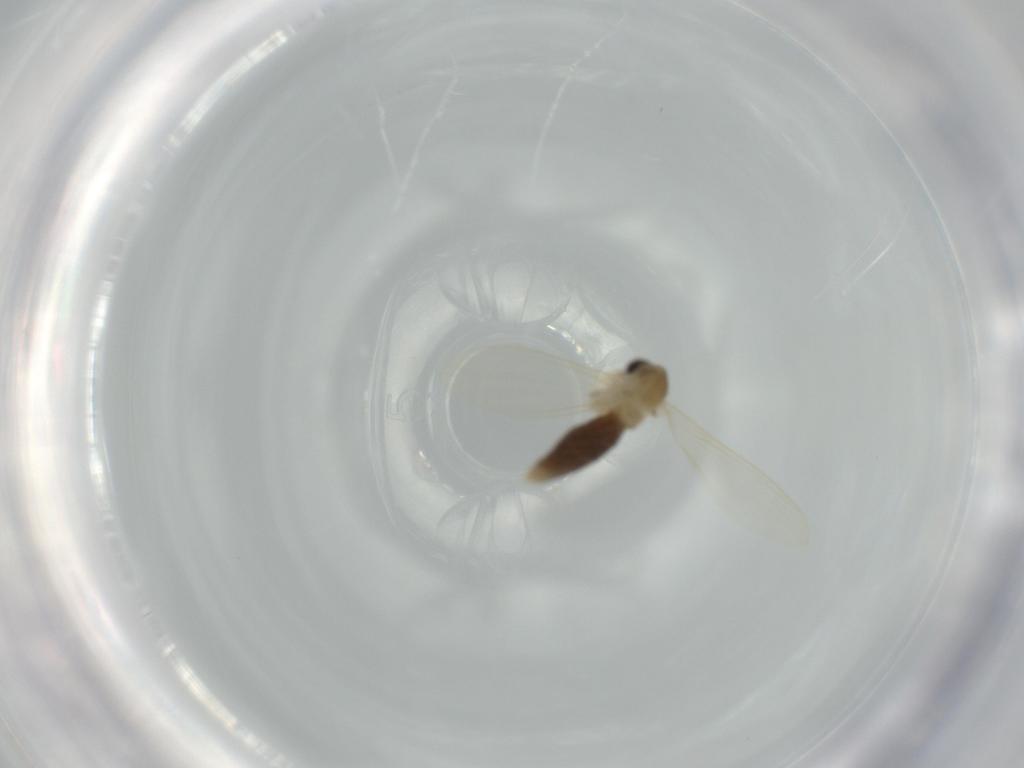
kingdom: Animalia
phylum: Arthropoda
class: Insecta
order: Diptera
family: Psychodidae
